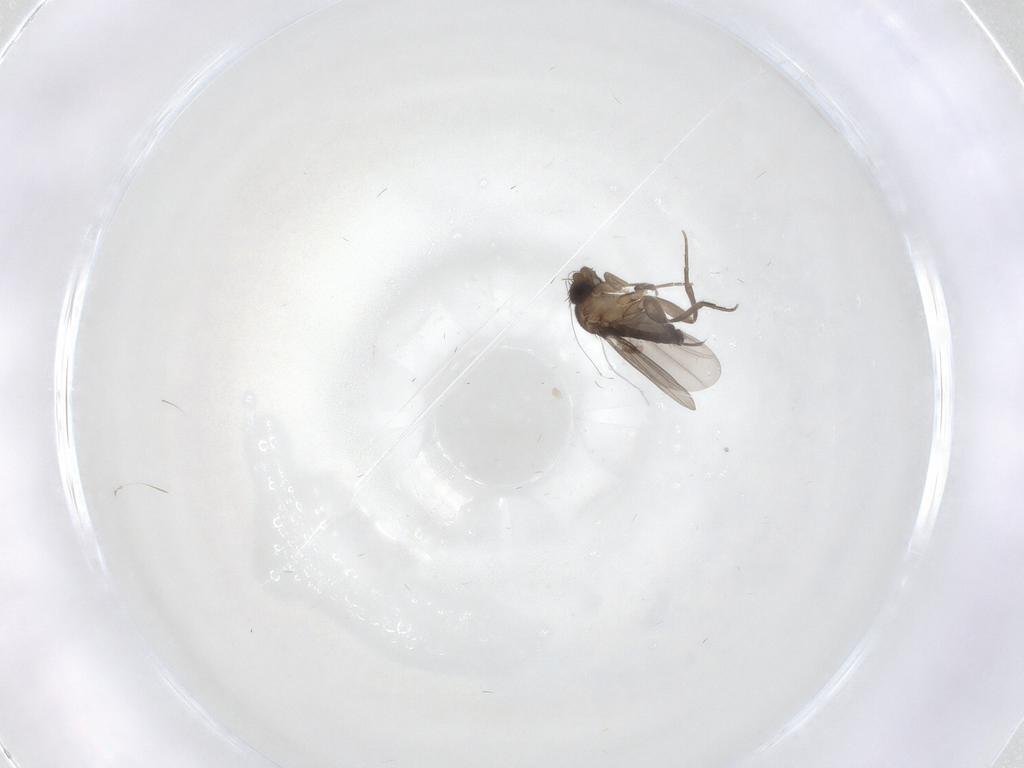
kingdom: Animalia
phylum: Arthropoda
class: Insecta
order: Diptera
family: Phoridae
